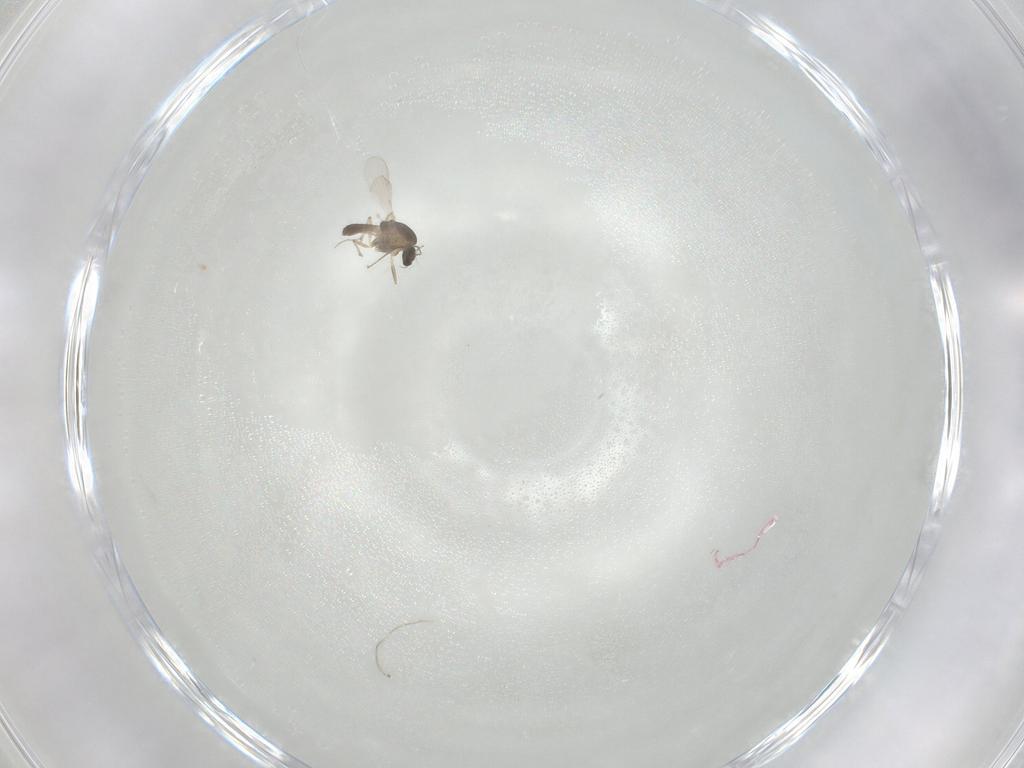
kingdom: Animalia
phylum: Arthropoda
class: Insecta
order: Diptera
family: Chironomidae
